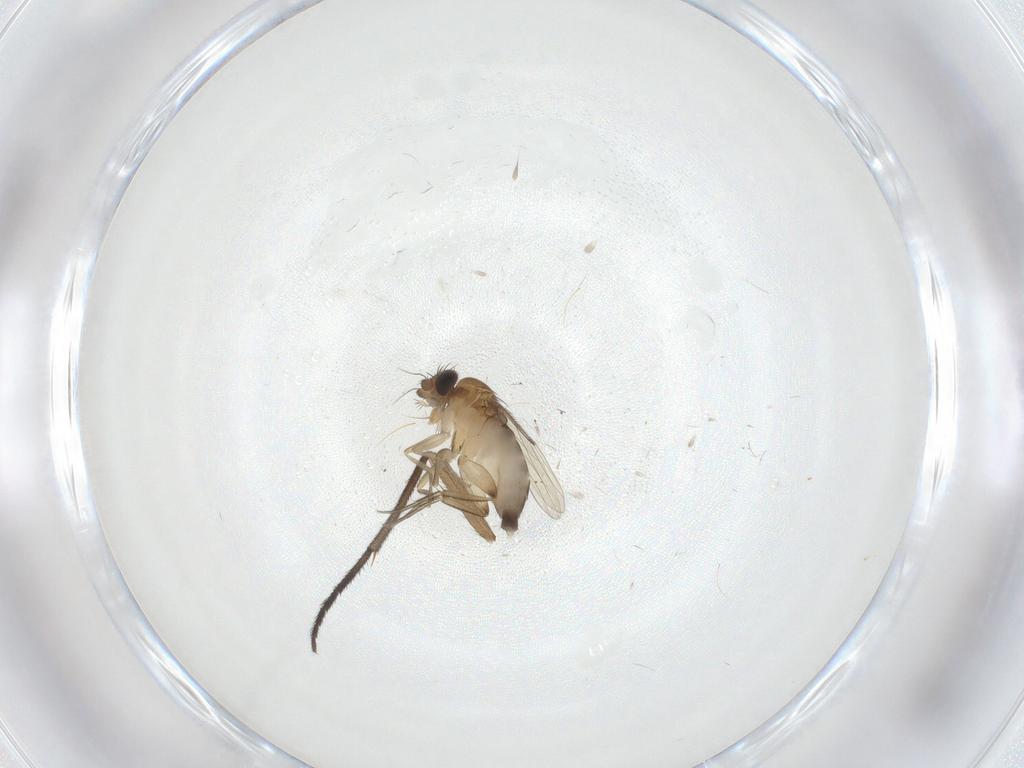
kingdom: Animalia
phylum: Arthropoda
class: Insecta
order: Diptera
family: Phoridae
